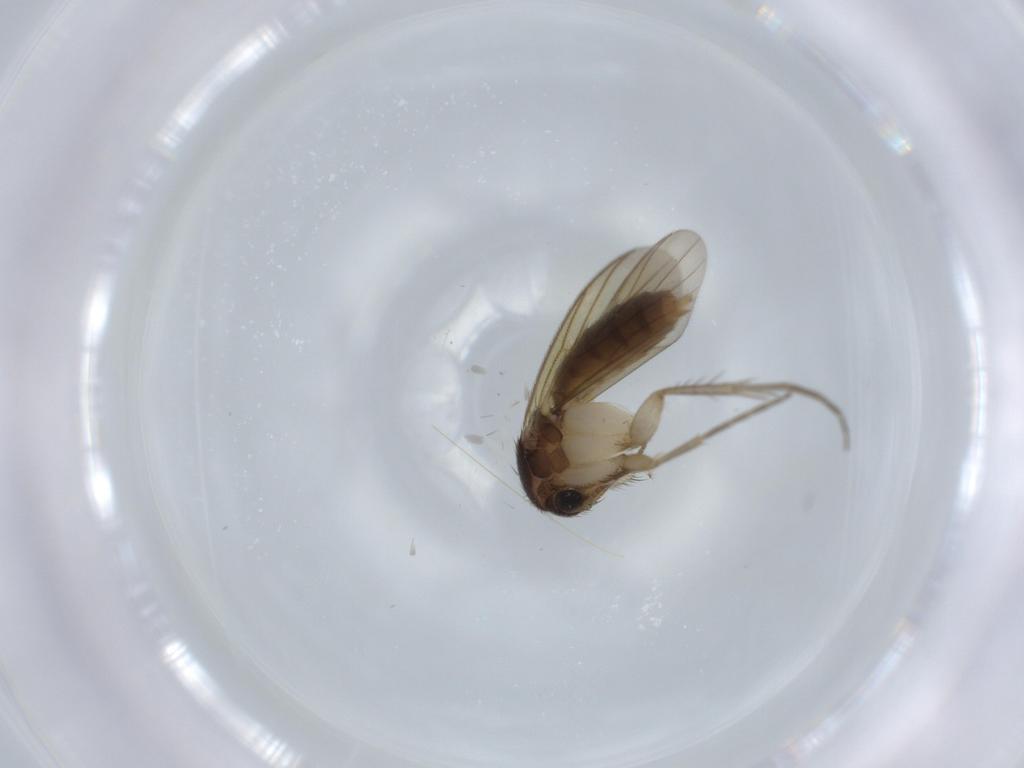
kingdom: Animalia
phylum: Arthropoda
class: Insecta
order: Diptera
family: Mycetophilidae
